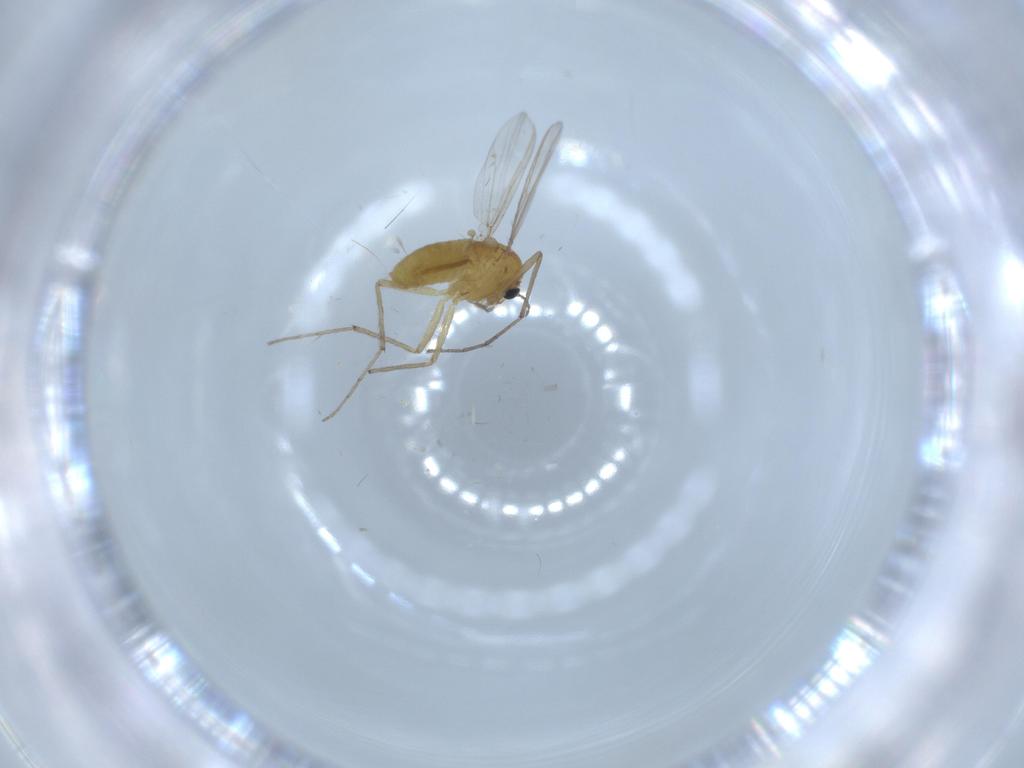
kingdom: Animalia
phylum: Arthropoda
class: Insecta
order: Diptera
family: Chironomidae
